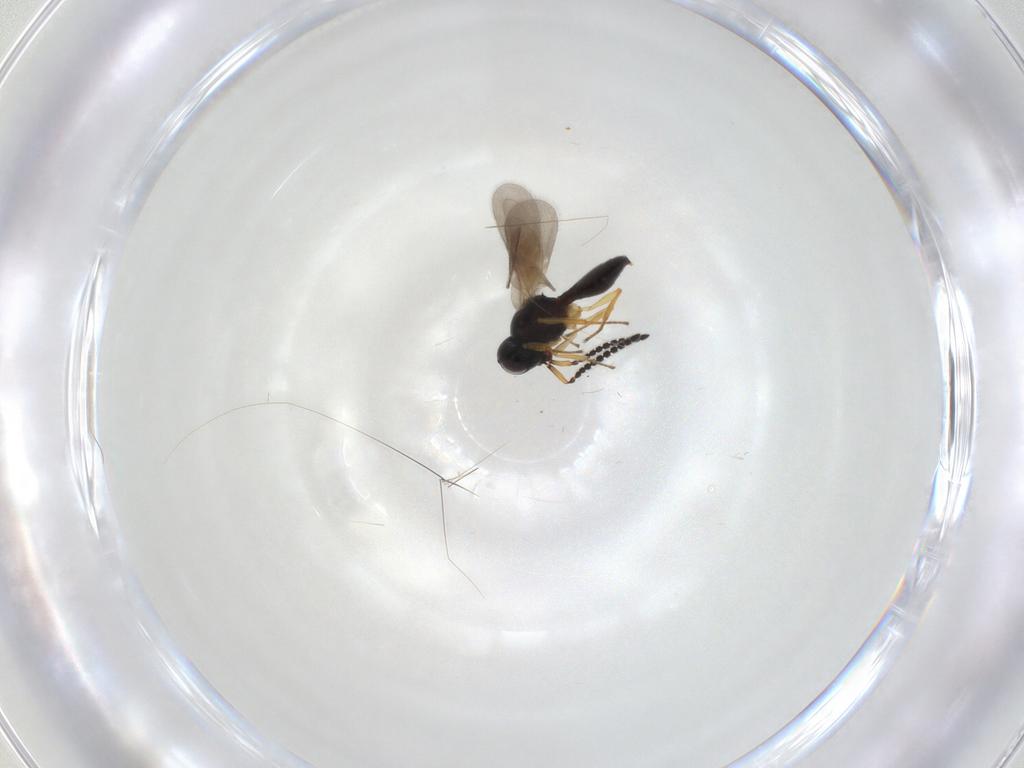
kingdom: Animalia
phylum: Arthropoda
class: Insecta
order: Hymenoptera
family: Scelionidae
